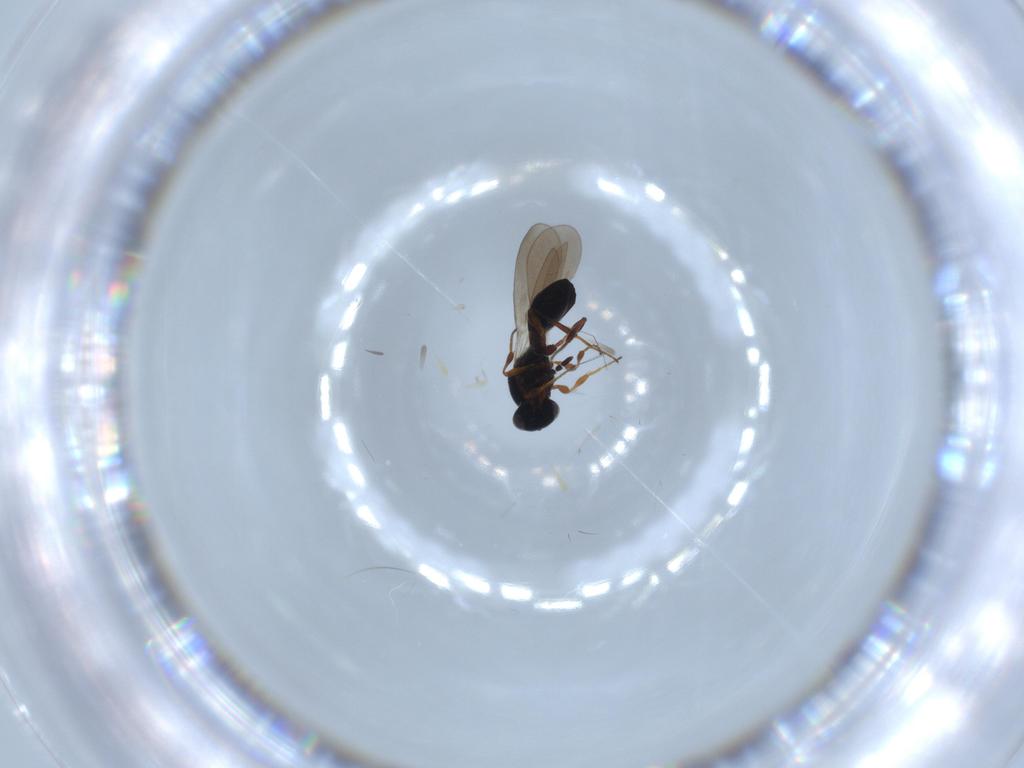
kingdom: Animalia
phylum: Arthropoda
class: Insecta
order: Hymenoptera
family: Platygastridae
